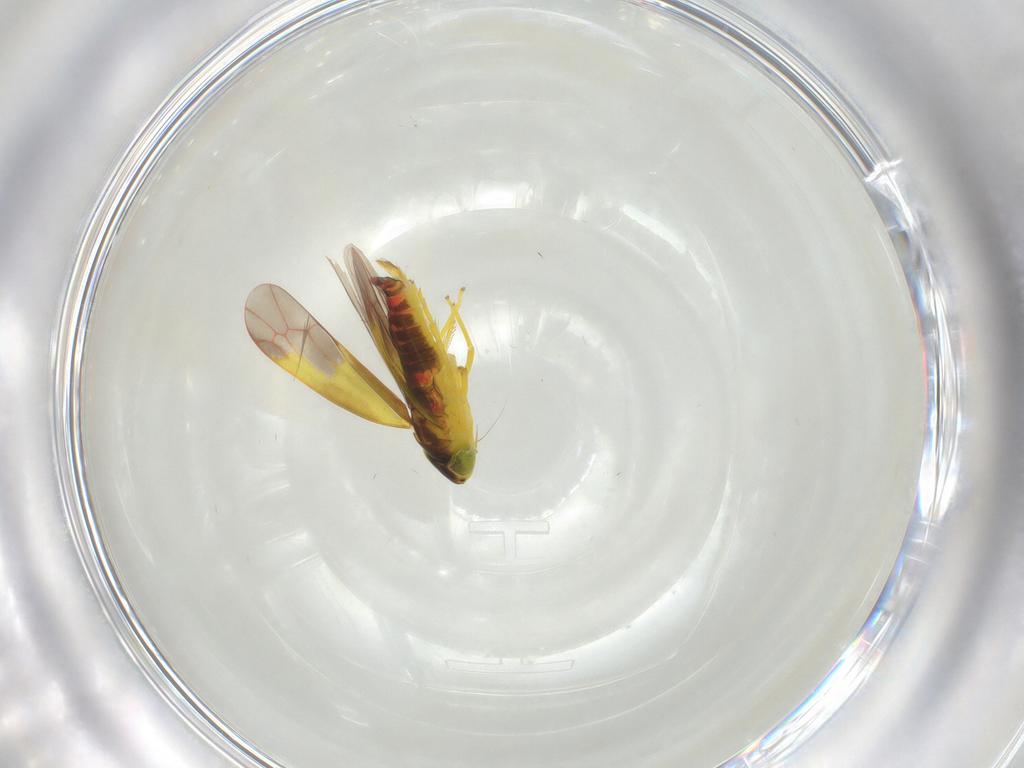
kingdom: Animalia
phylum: Arthropoda
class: Insecta
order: Hemiptera
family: Cicadellidae
